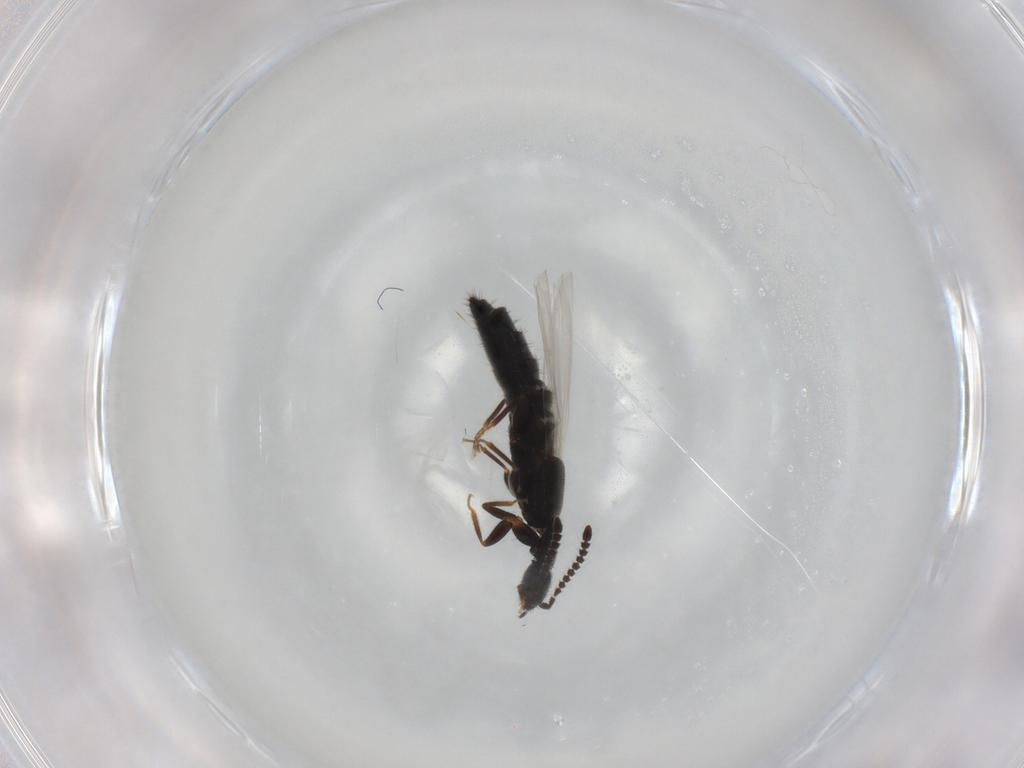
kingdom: Animalia
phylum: Arthropoda
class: Insecta
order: Coleoptera
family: Staphylinidae
